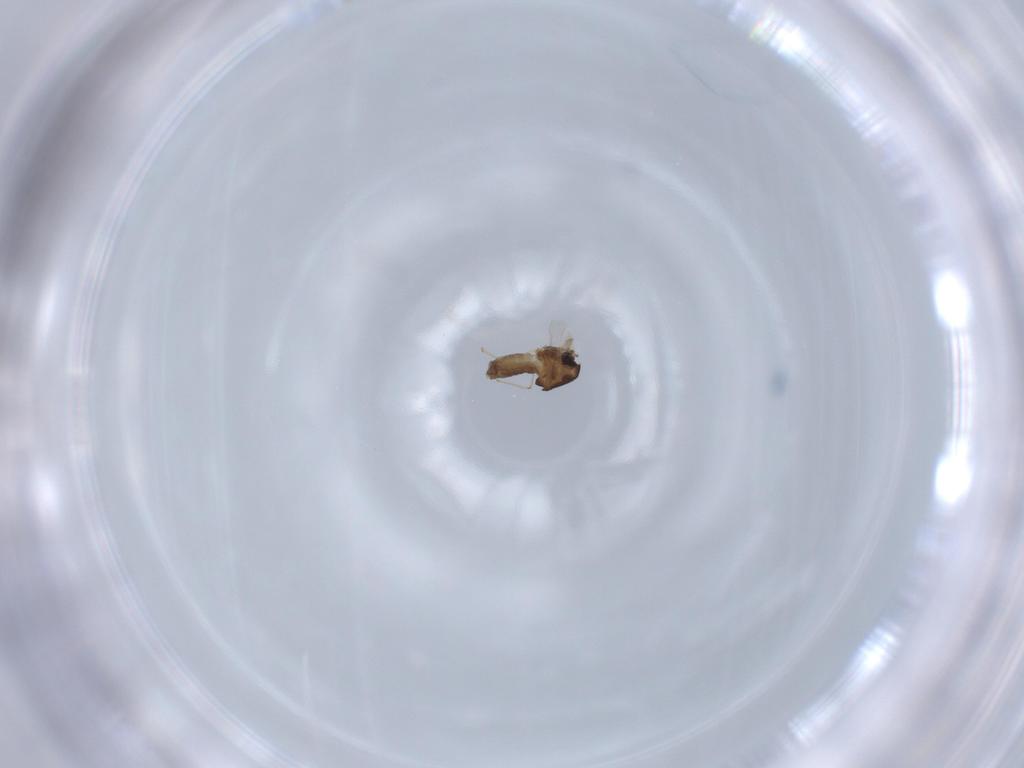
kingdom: Animalia
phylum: Arthropoda
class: Insecta
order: Diptera
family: Chironomidae
